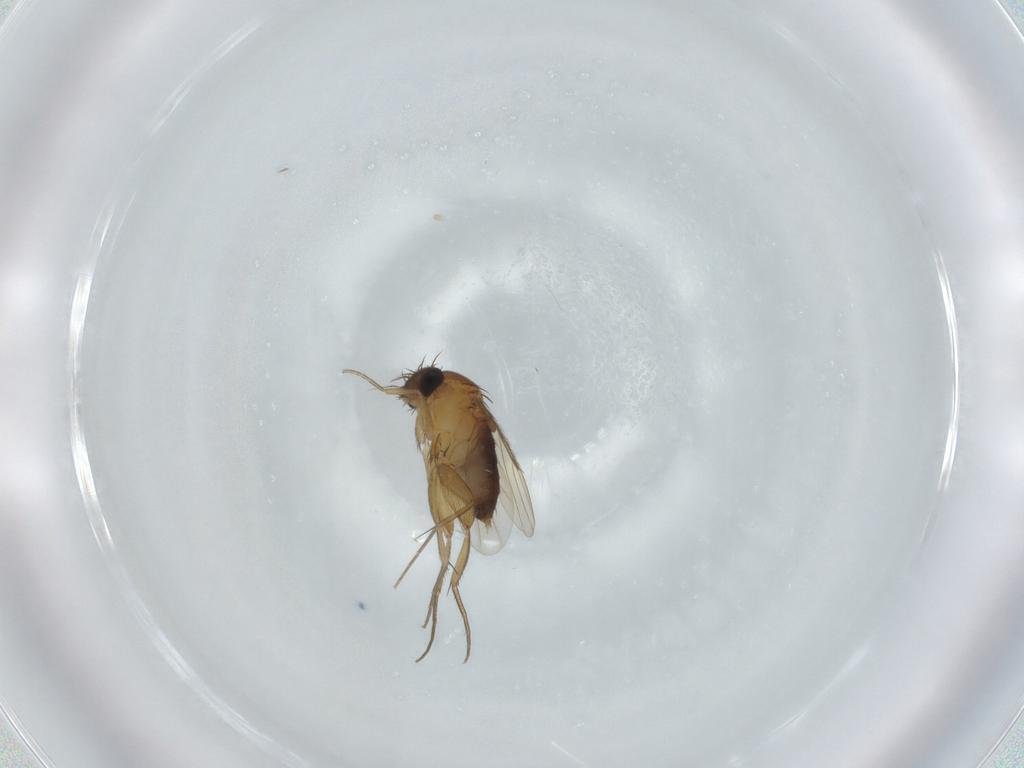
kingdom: Animalia
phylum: Arthropoda
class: Insecta
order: Diptera
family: Phoridae
